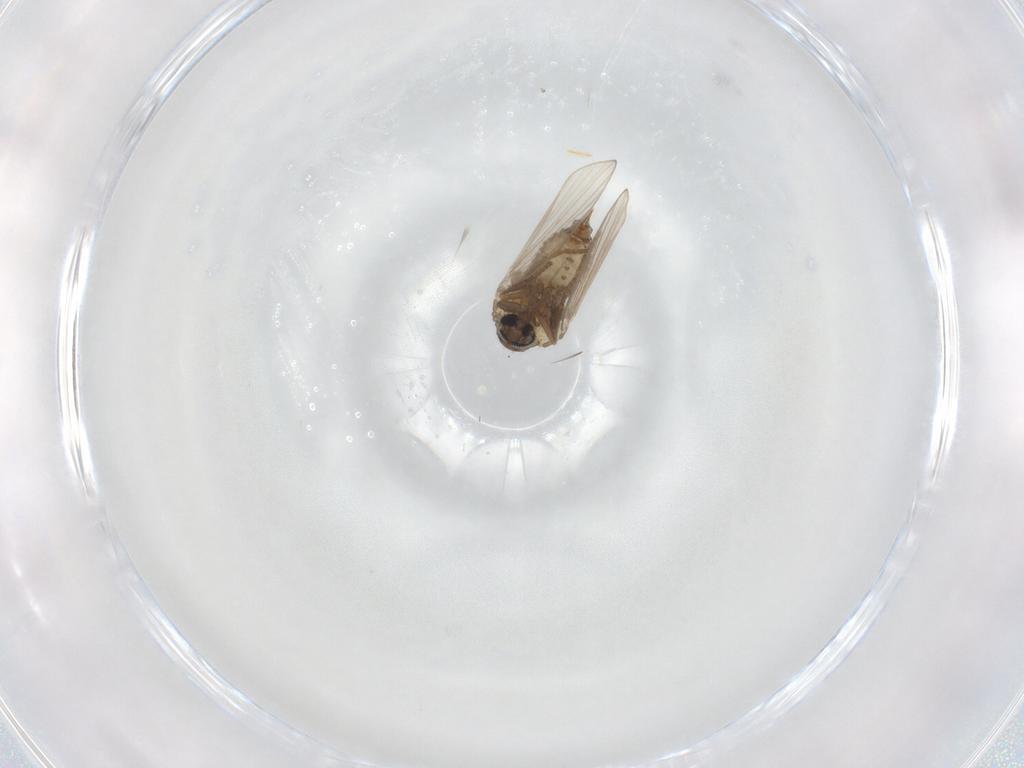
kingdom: Animalia
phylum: Arthropoda
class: Insecta
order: Diptera
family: Psychodidae
